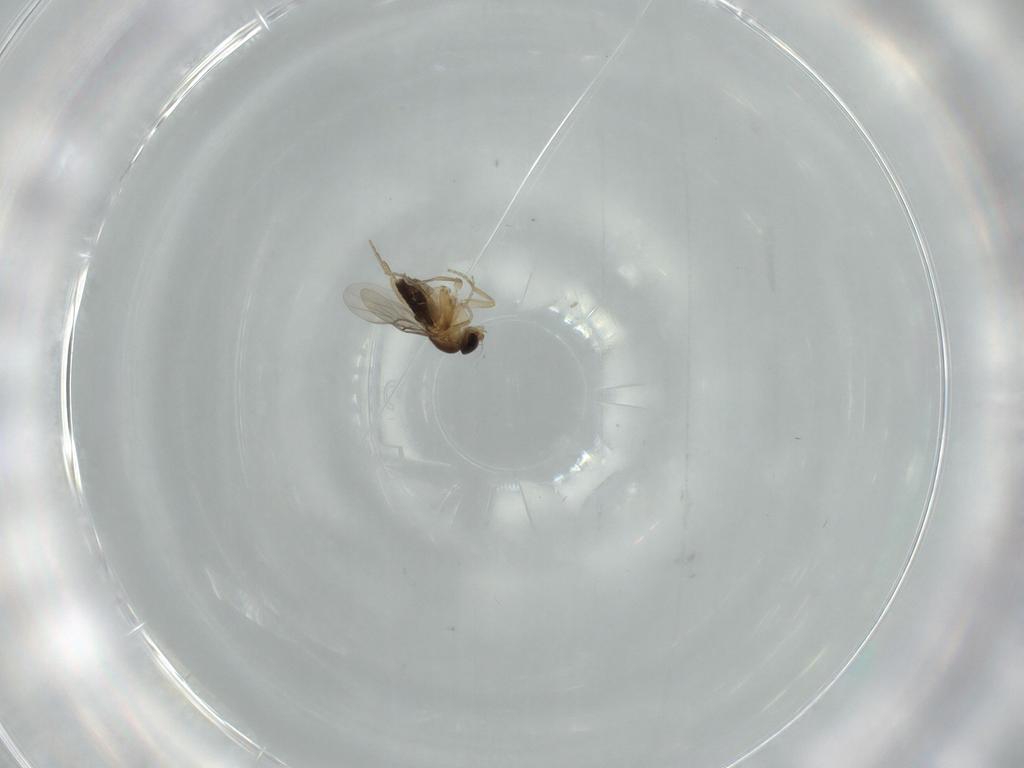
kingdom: Animalia
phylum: Arthropoda
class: Insecta
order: Diptera
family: Phoridae
